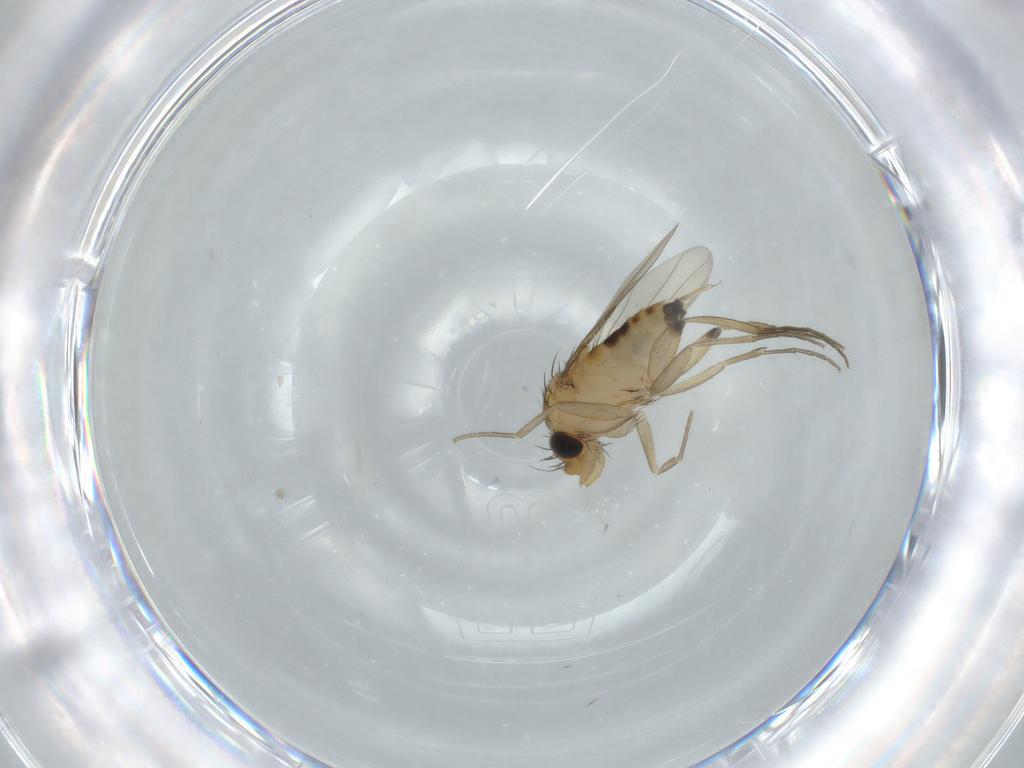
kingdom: Animalia
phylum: Arthropoda
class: Insecta
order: Diptera
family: Phoridae
